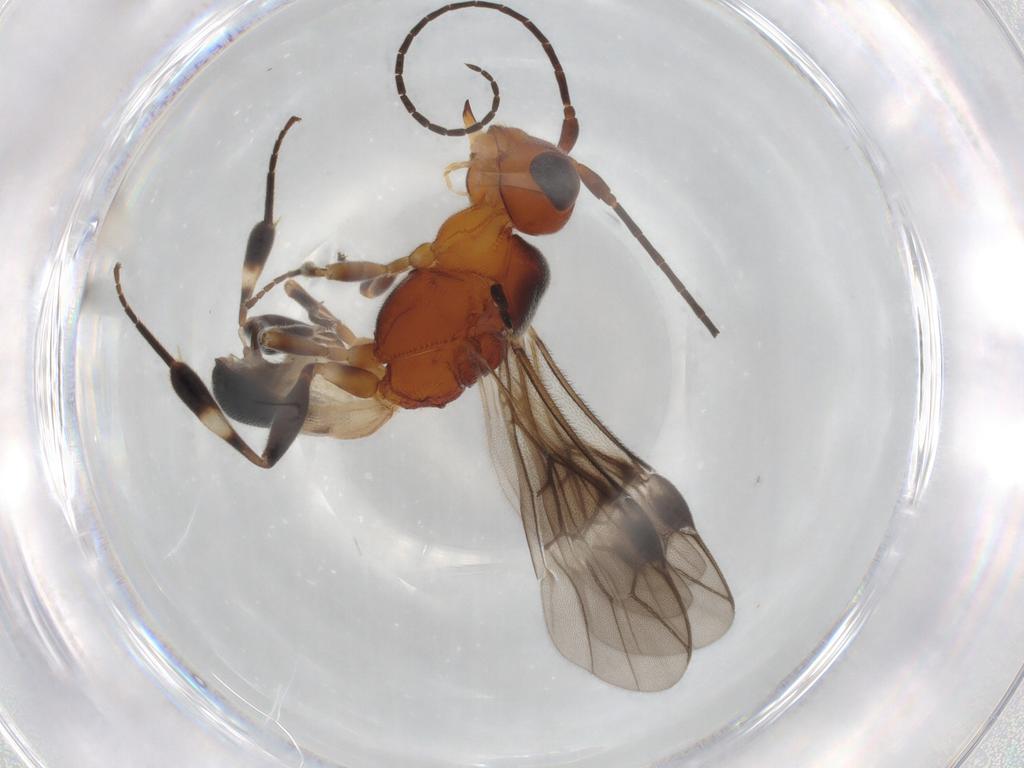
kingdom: Animalia
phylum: Arthropoda
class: Insecta
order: Hymenoptera
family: Braconidae
